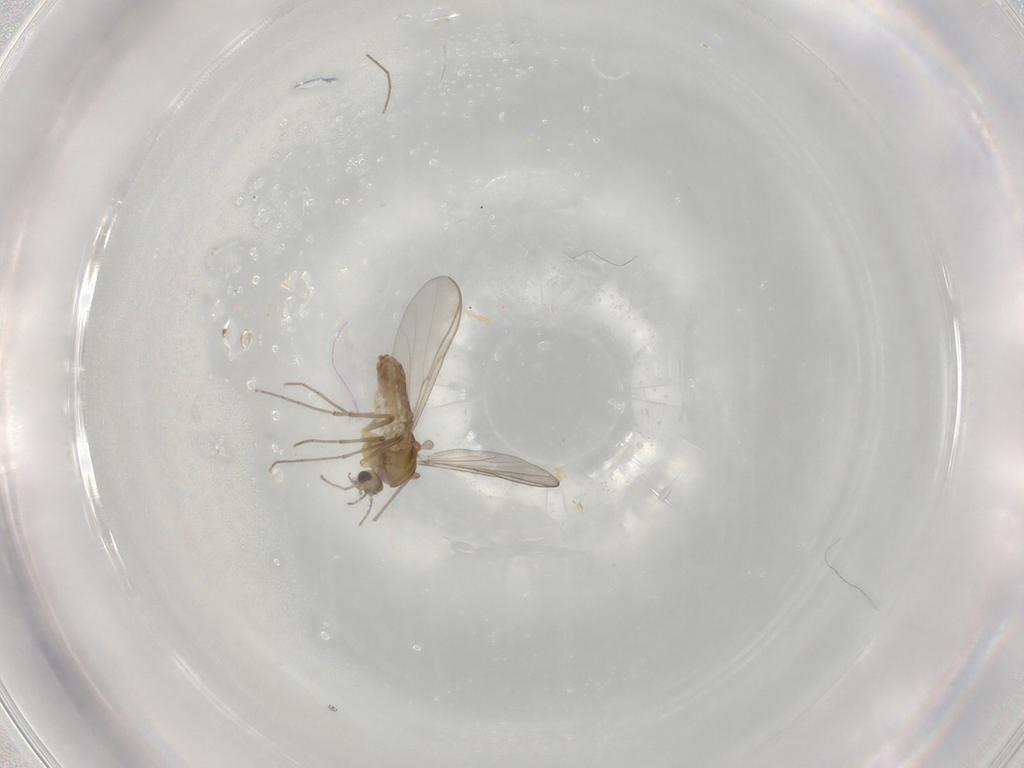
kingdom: Animalia
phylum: Arthropoda
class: Insecta
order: Diptera
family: Chironomidae
